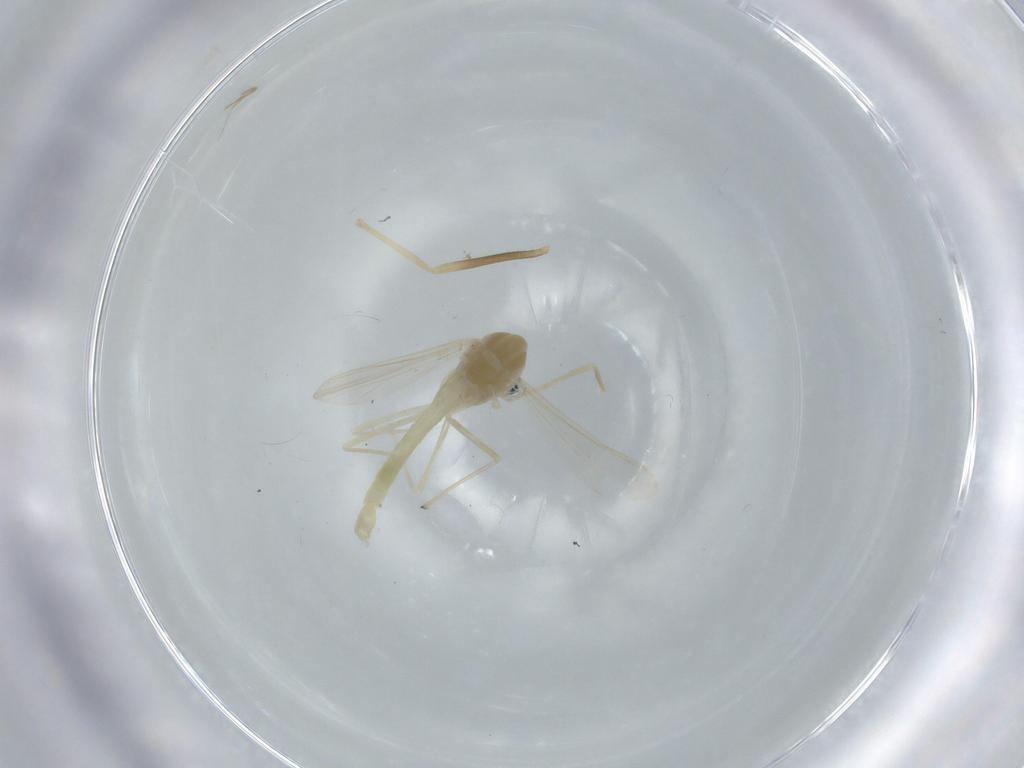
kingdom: Animalia
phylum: Arthropoda
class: Insecta
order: Diptera
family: Chironomidae
